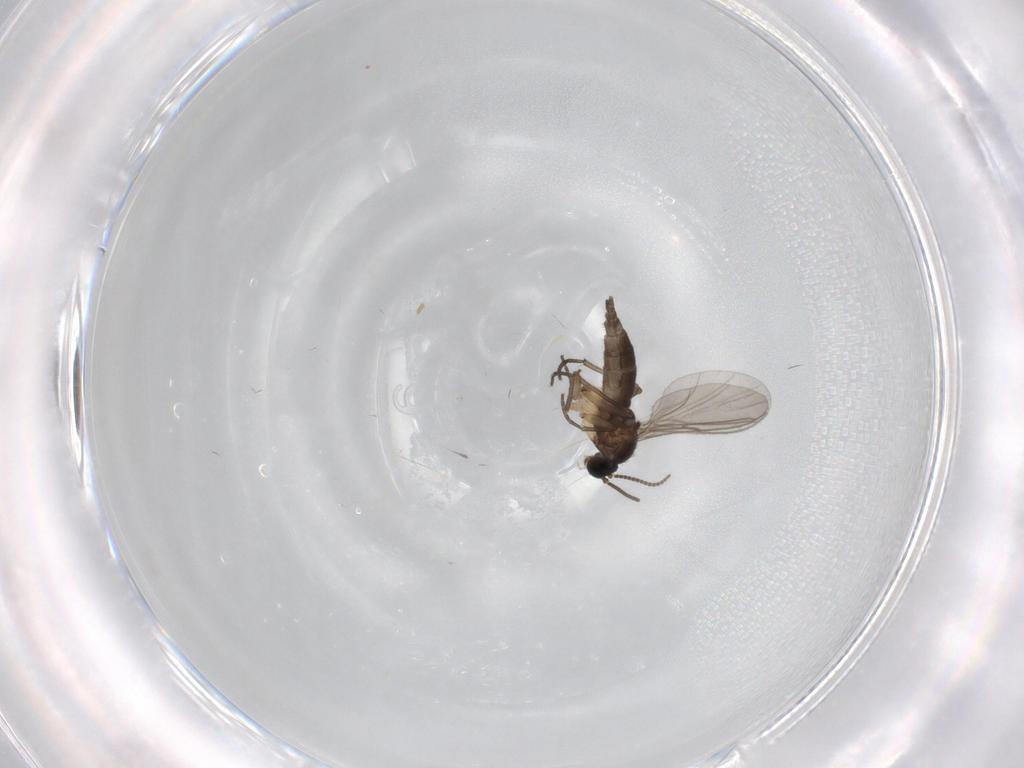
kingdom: Animalia
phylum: Arthropoda
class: Insecta
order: Diptera
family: Sciaridae
